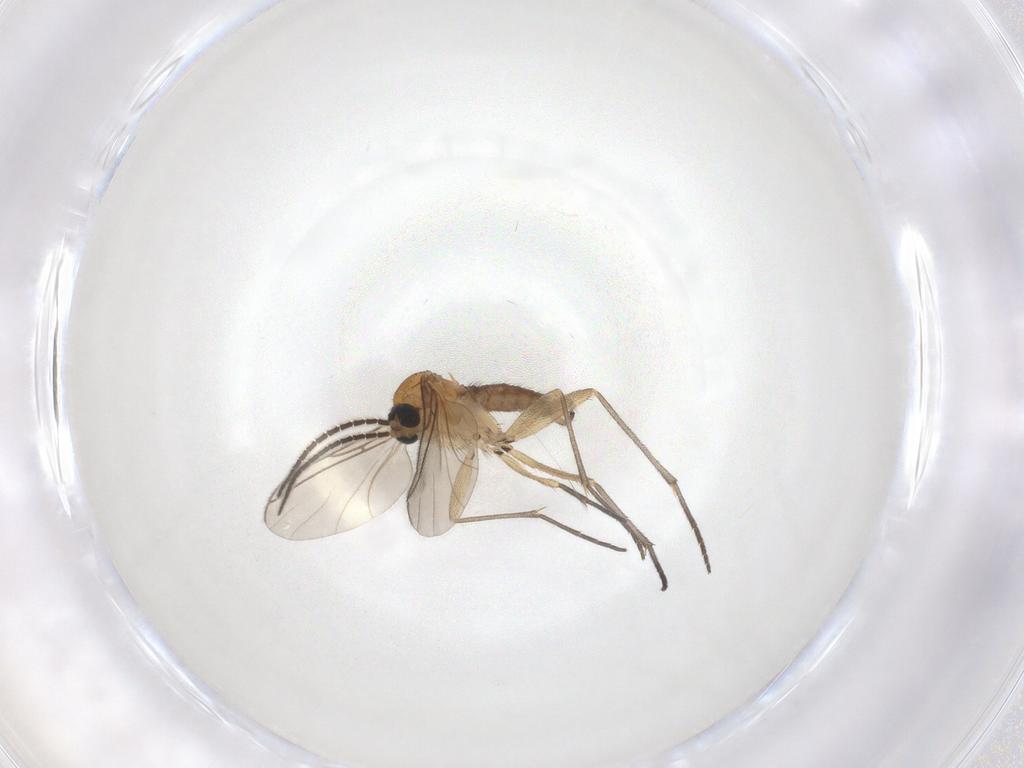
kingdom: Animalia
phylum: Arthropoda
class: Insecta
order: Diptera
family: Sciaridae
